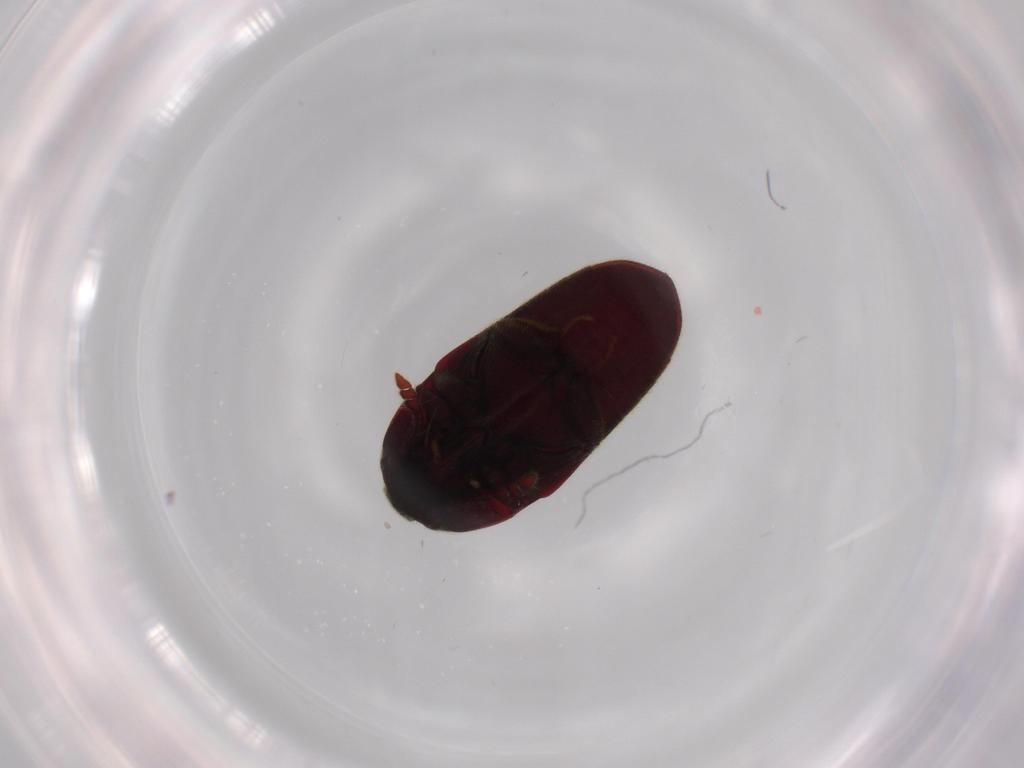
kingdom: Animalia
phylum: Arthropoda
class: Insecta
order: Coleoptera
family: Throscidae
